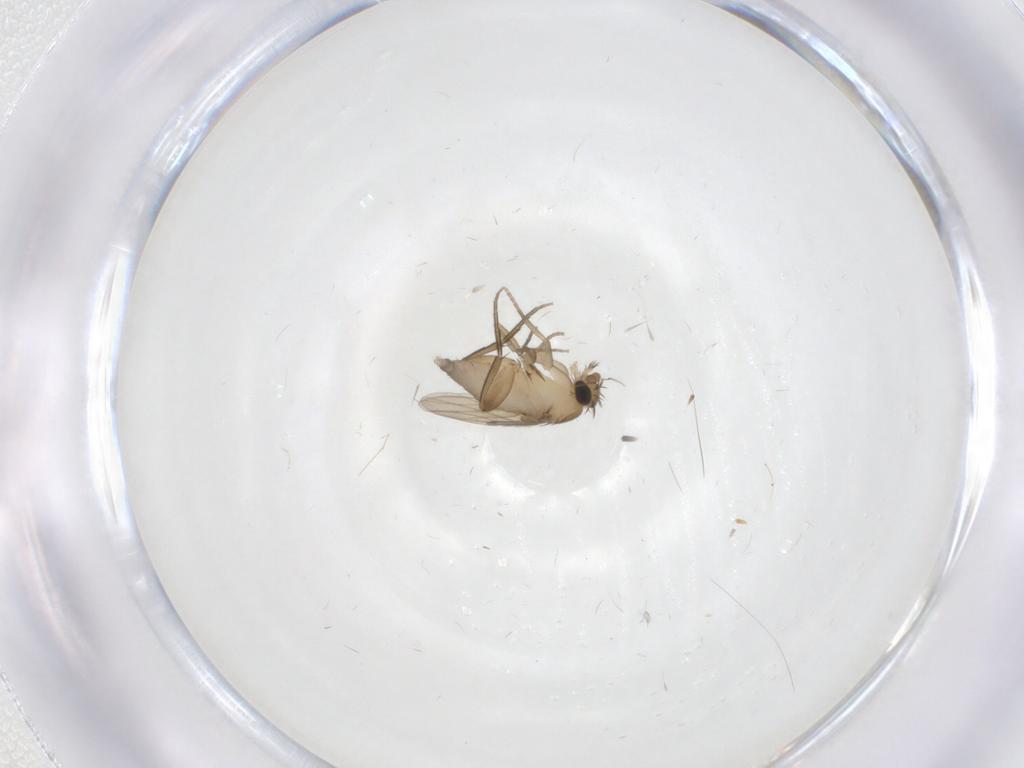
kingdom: Animalia
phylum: Arthropoda
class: Insecta
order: Diptera
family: Phoridae
